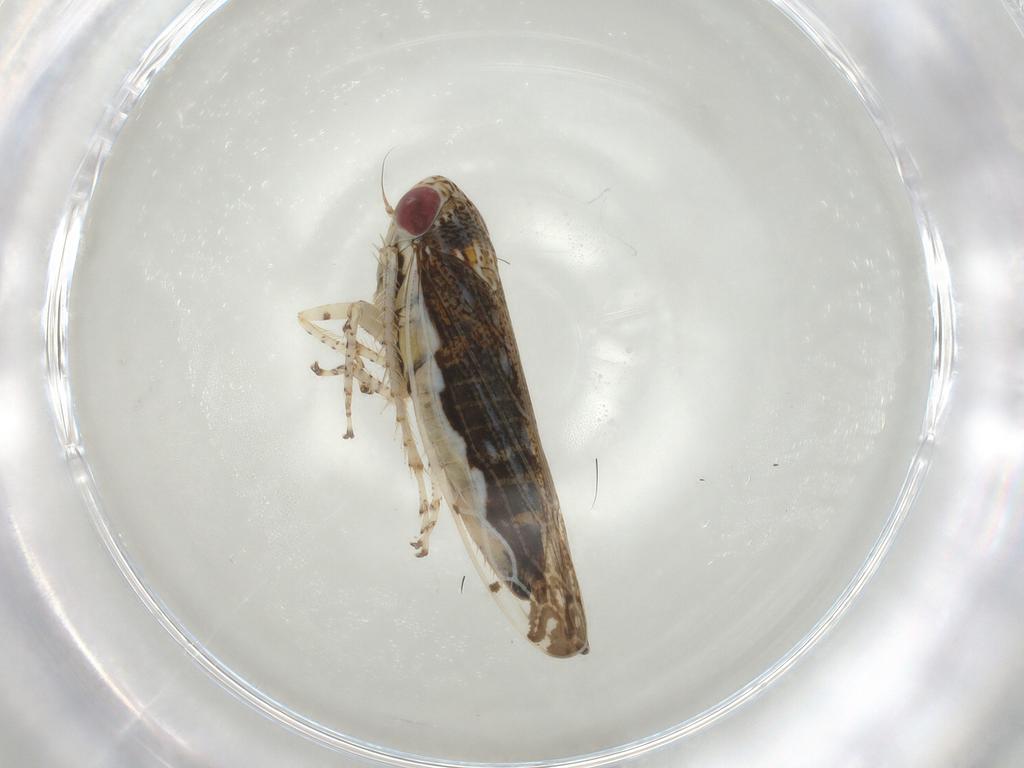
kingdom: Animalia
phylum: Arthropoda
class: Insecta
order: Hemiptera
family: Cicadellidae
